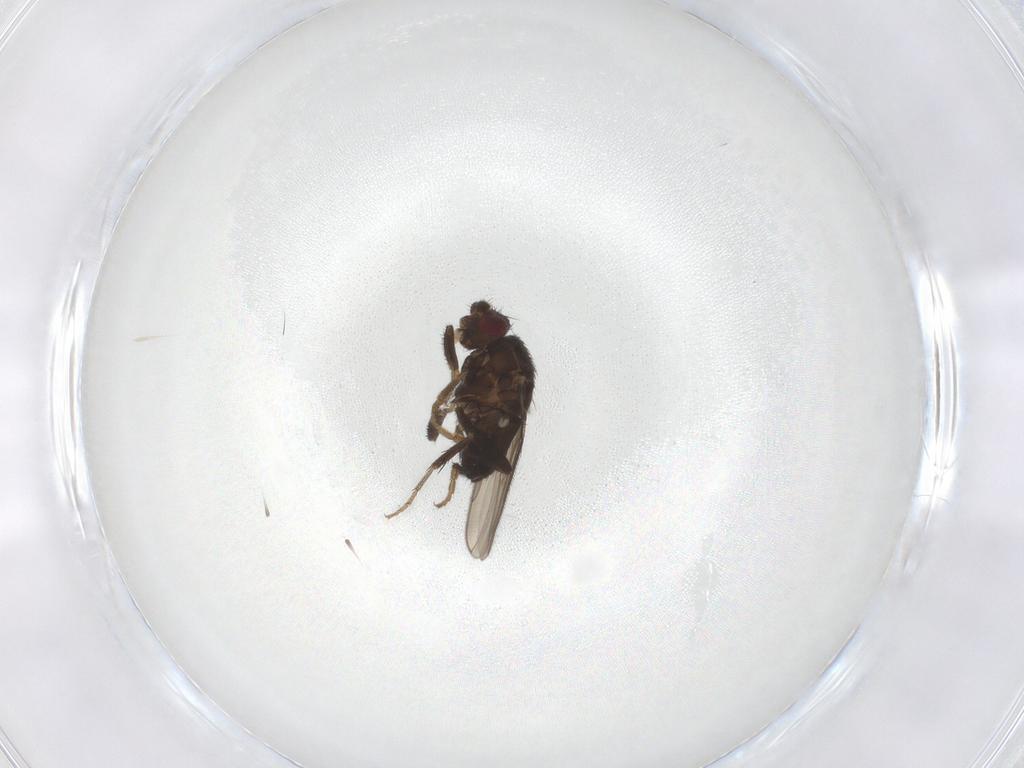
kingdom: Animalia
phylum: Arthropoda
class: Insecta
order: Diptera
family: Sphaeroceridae
